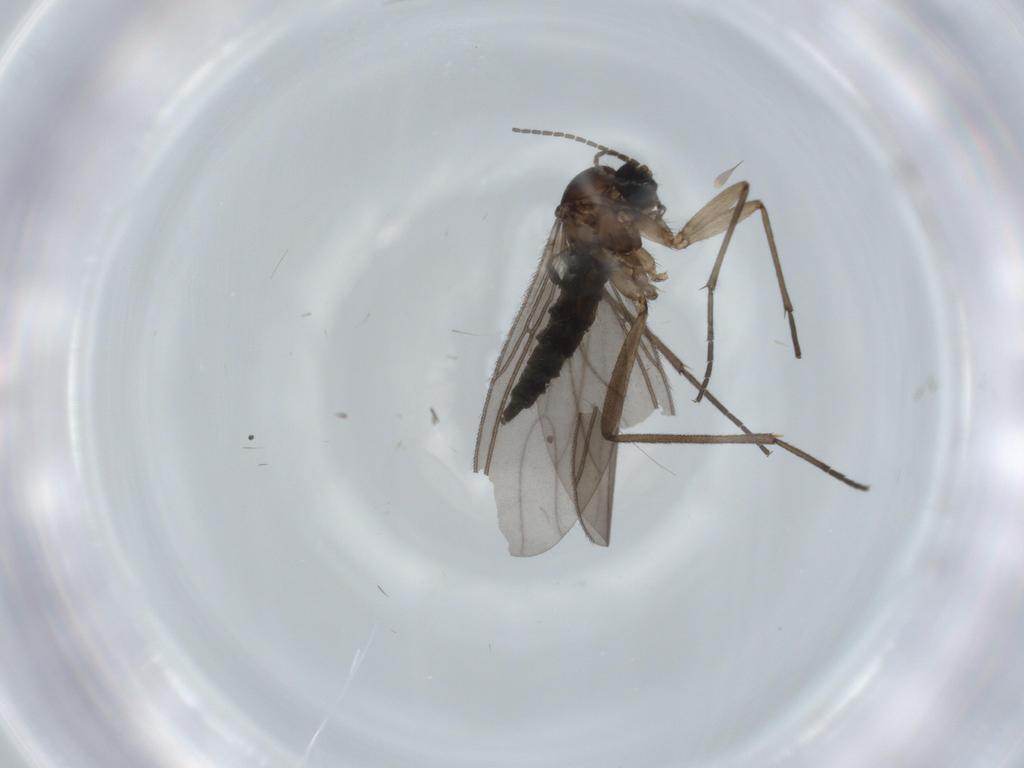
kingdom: Animalia
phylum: Arthropoda
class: Insecta
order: Diptera
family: Sciaridae
